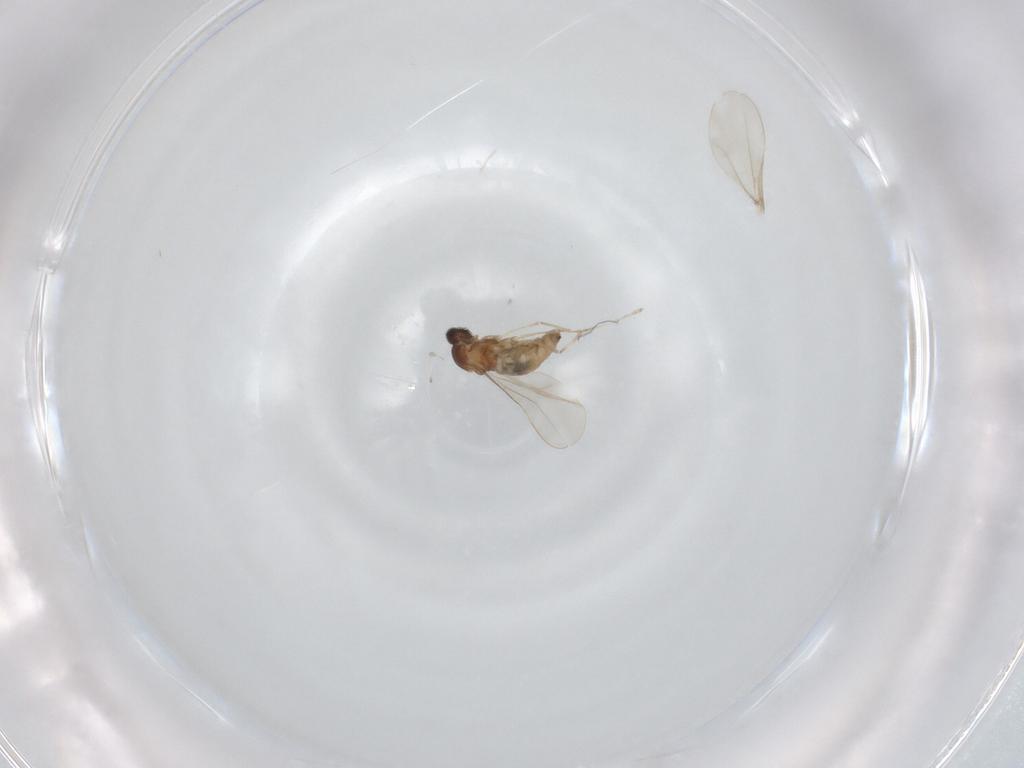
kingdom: Animalia
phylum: Arthropoda
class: Insecta
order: Diptera
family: Cecidomyiidae
